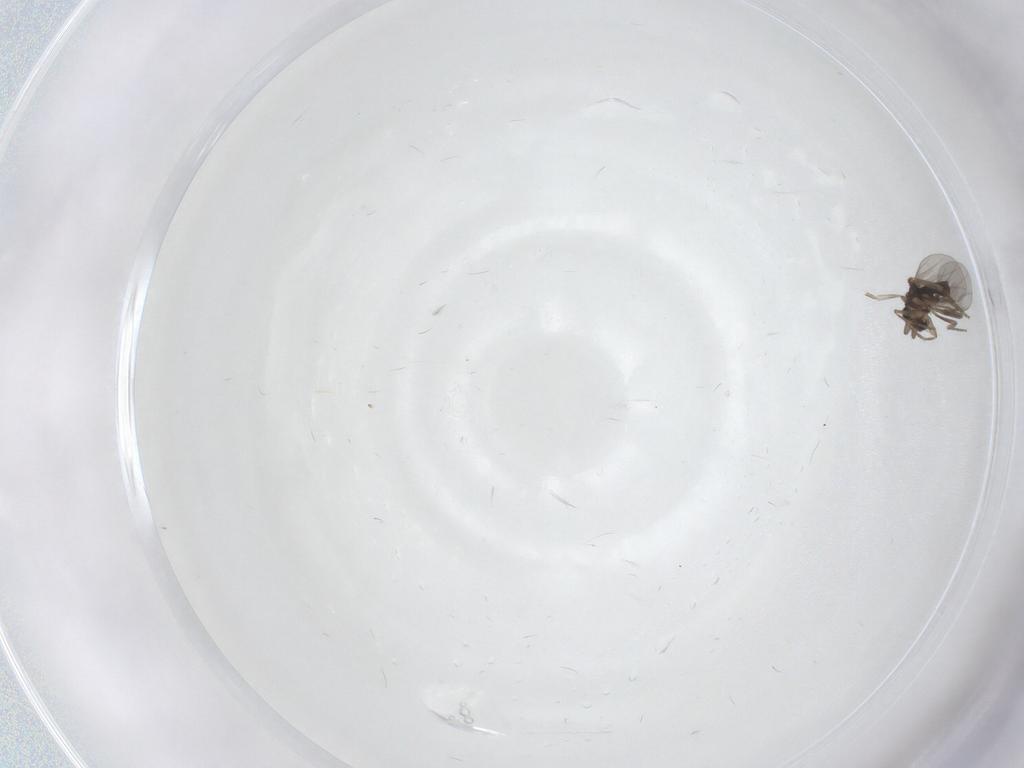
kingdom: Animalia
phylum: Arthropoda
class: Insecta
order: Diptera
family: Drosophilidae
